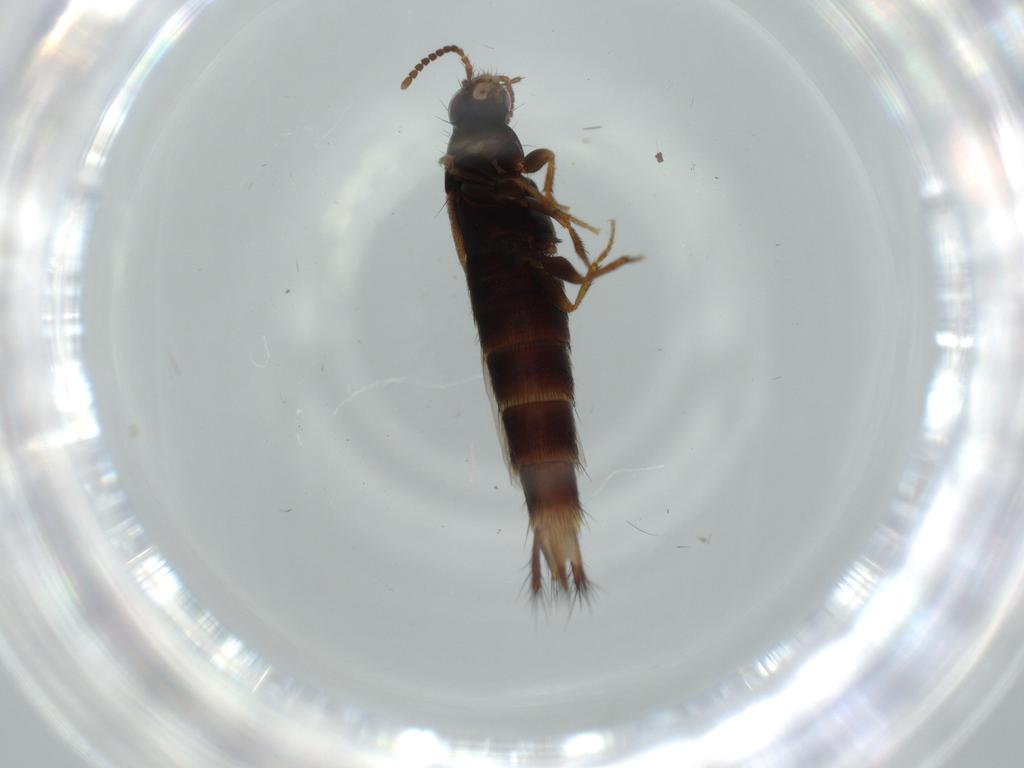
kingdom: Animalia
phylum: Arthropoda
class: Insecta
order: Coleoptera
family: Staphylinidae
